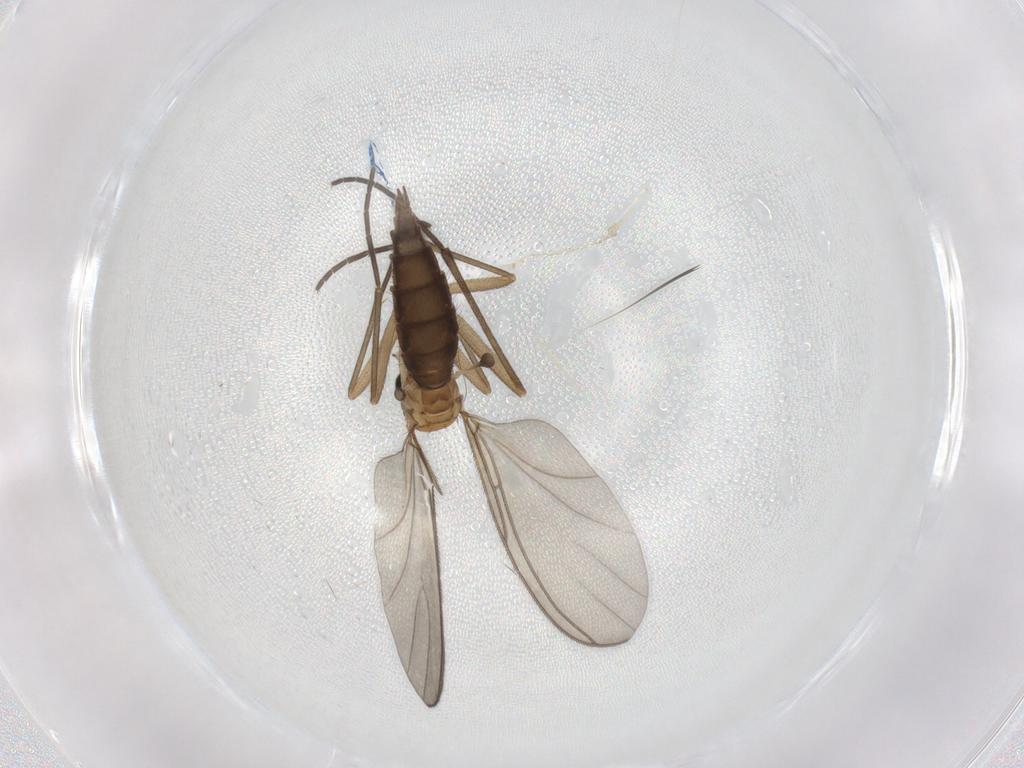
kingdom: Animalia
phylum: Arthropoda
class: Insecta
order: Diptera
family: Sciaridae
